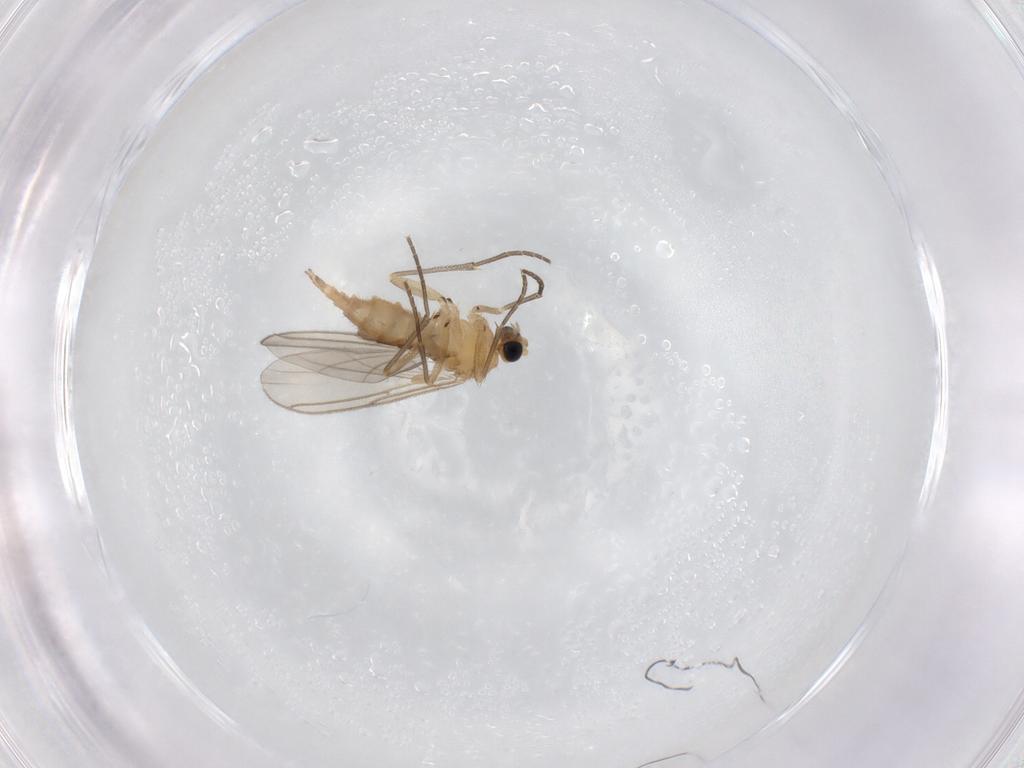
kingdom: Animalia
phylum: Arthropoda
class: Insecta
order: Diptera
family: Sciaridae
